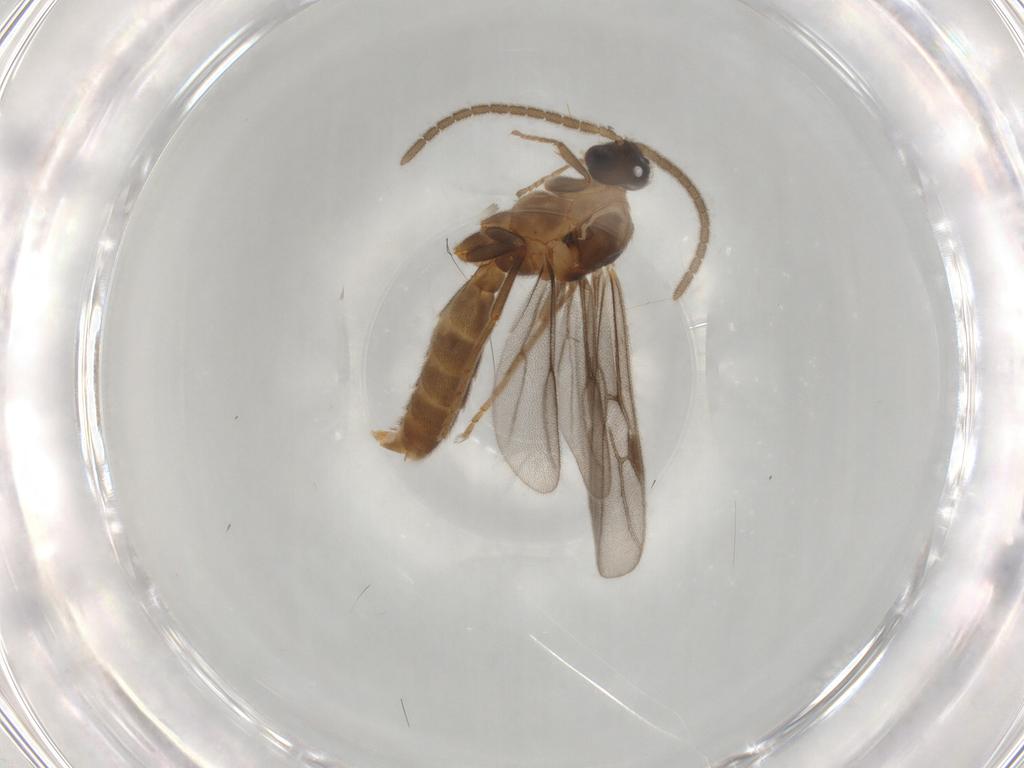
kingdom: Animalia
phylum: Arthropoda
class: Insecta
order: Hymenoptera
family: Formicidae
